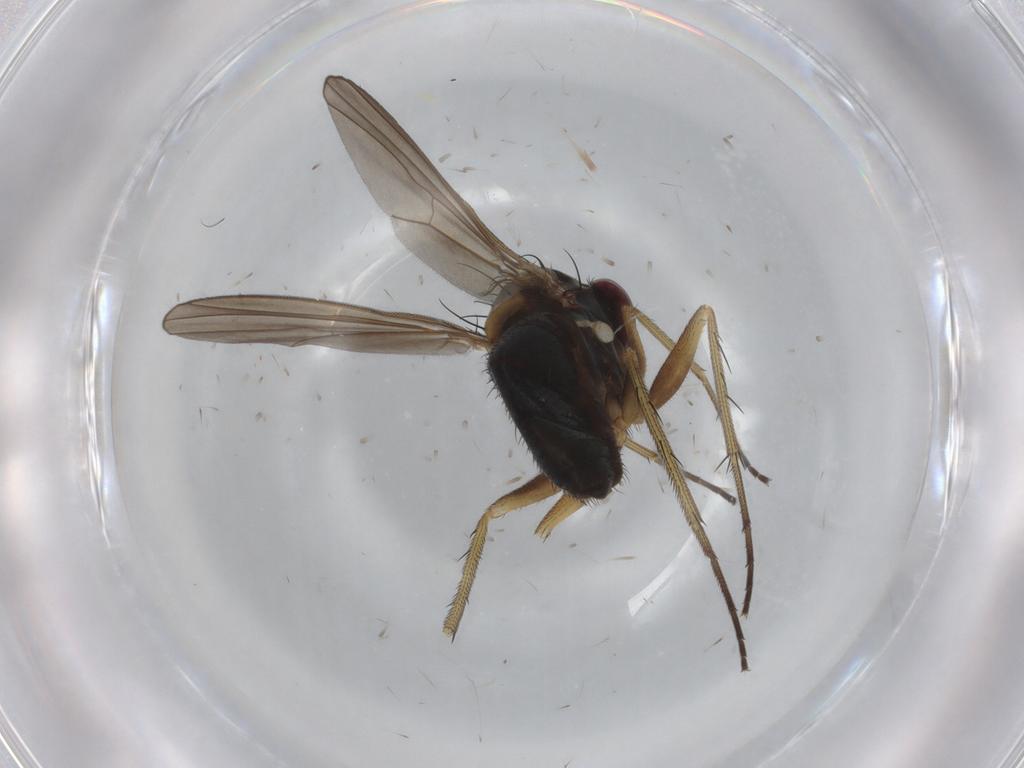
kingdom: Animalia
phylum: Arthropoda
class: Insecta
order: Diptera
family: Dolichopodidae
